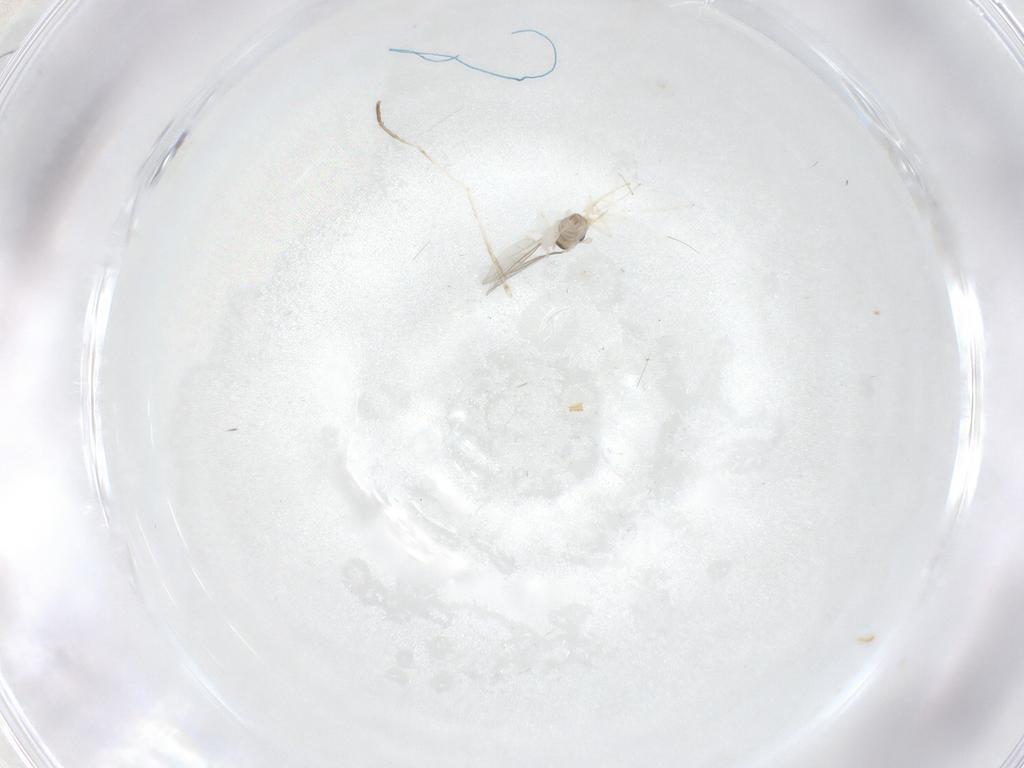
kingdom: Animalia
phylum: Arthropoda
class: Insecta
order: Diptera
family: Cecidomyiidae
